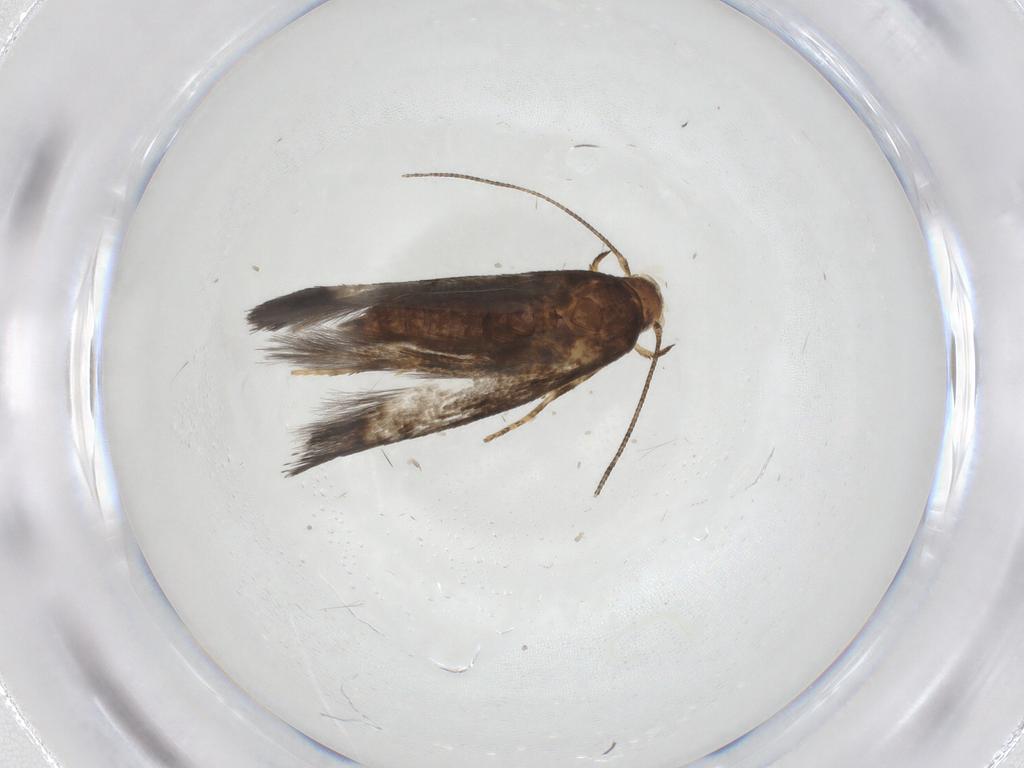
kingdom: Animalia
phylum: Arthropoda
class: Insecta
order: Lepidoptera
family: Momphidae
